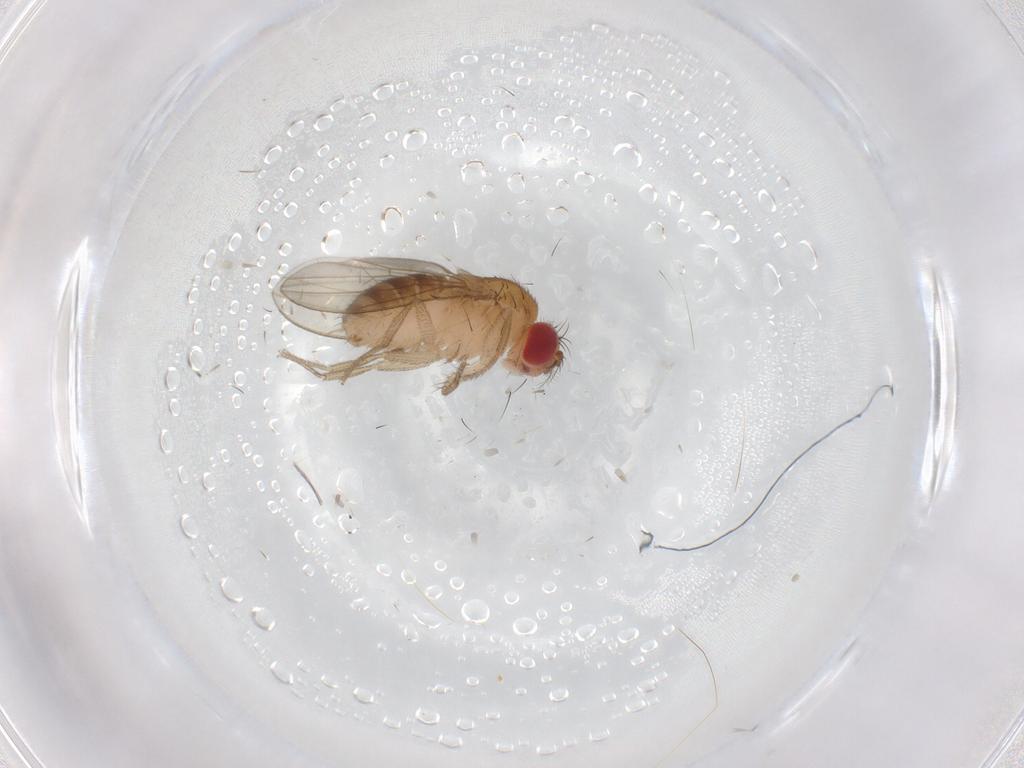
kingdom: Animalia
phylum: Arthropoda
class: Insecta
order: Diptera
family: Drosophilidae
